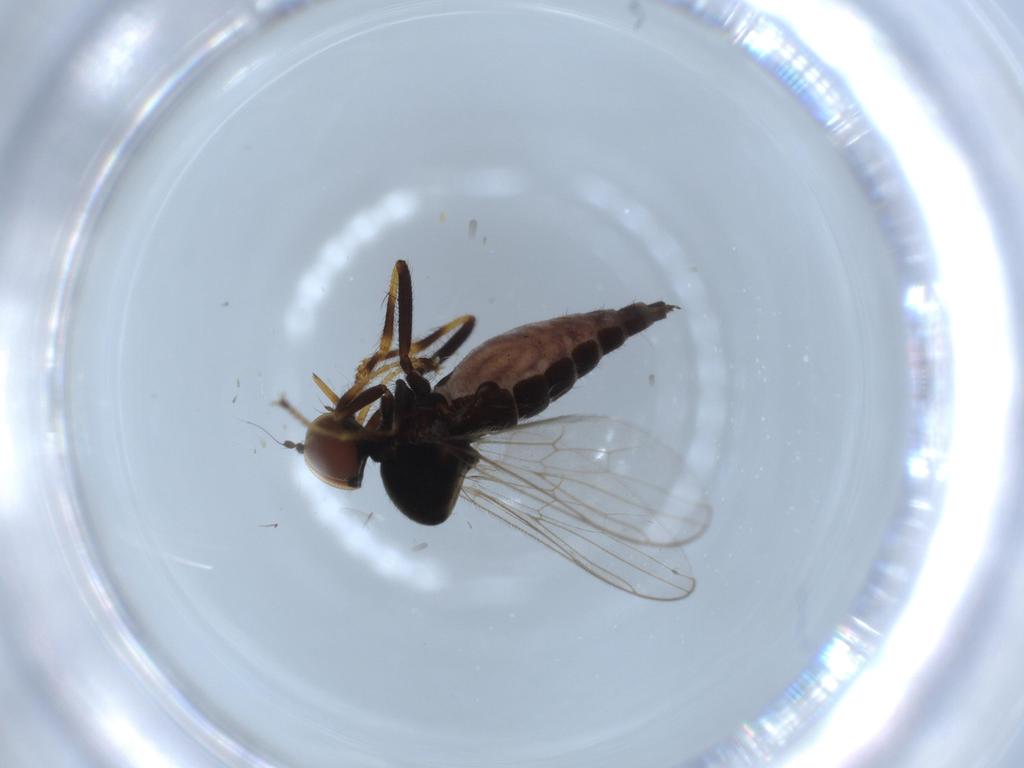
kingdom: Animalia
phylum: Arthropoda
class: Insecta
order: Diptera
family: Hybotidae
